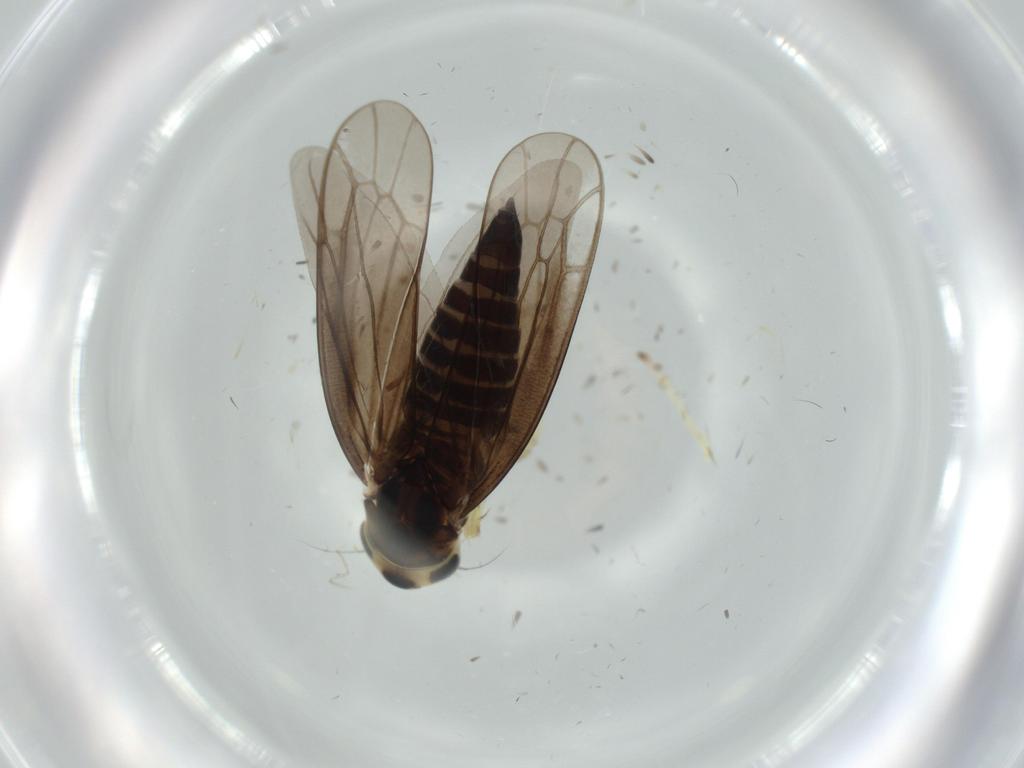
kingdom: Animalia
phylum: Arthropoda
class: Insecta
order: Hemiptera
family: Cicadellidae
